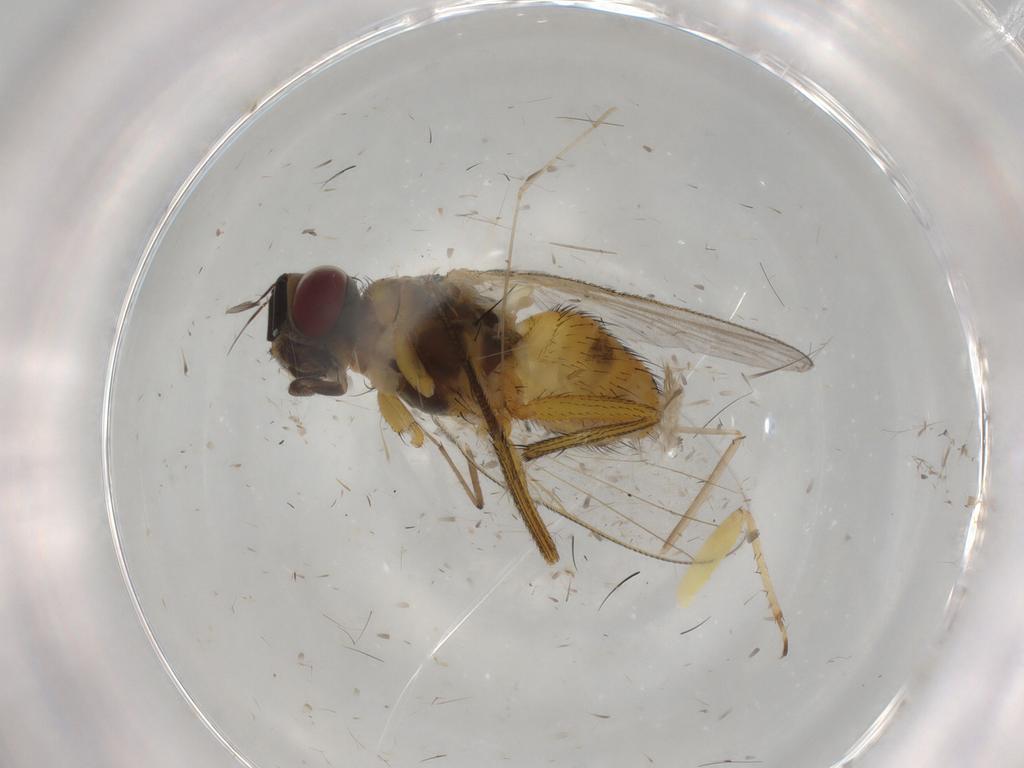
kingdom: Animalia
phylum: Arthropoda
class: Insecta
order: Diptera
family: Muscidae
